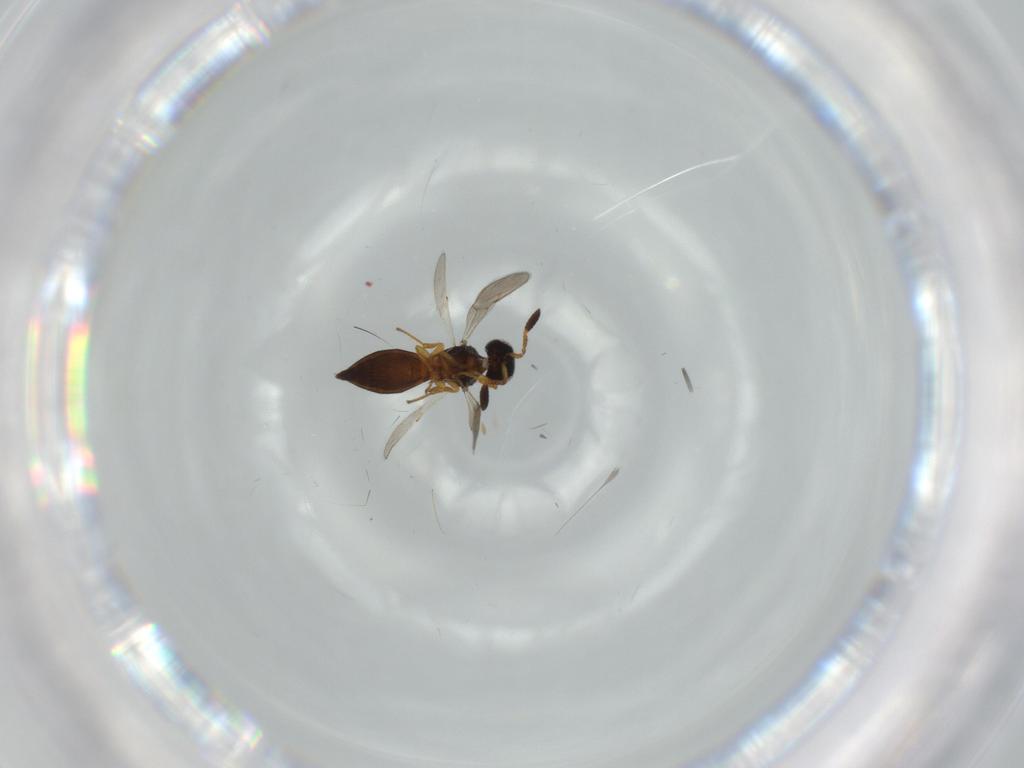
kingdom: Animalia
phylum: Arthropoda
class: Insecta
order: Hymenoptera
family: Scelionidae
